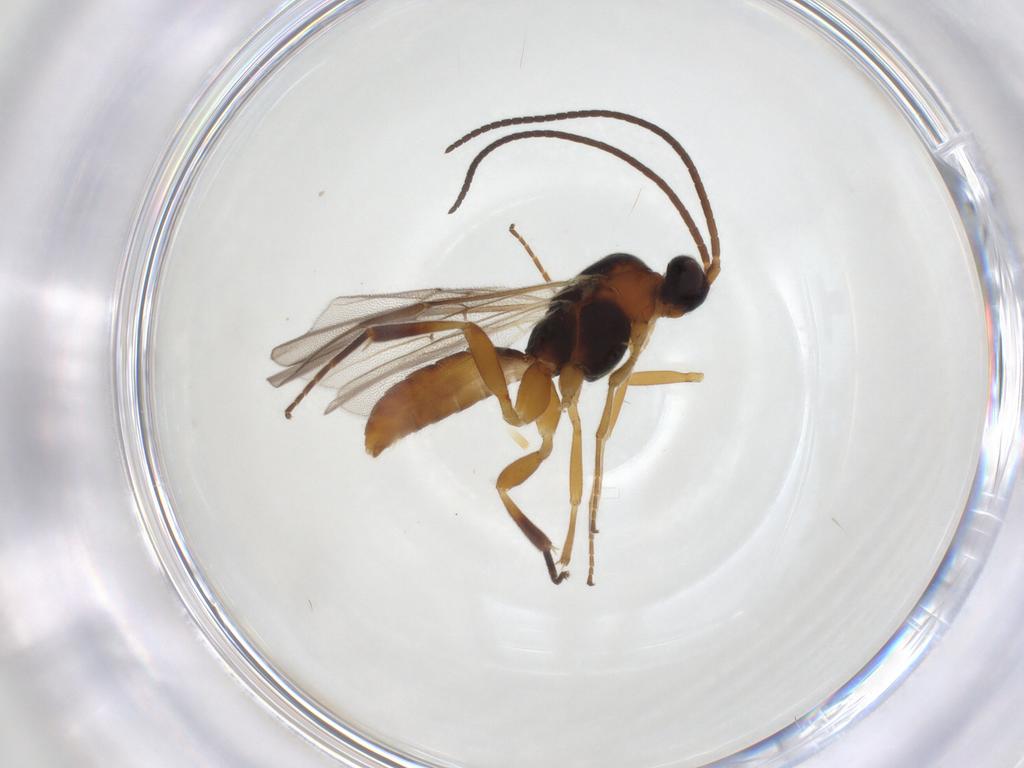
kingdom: Animalia
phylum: Arthropoda
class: Insecta
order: Hymenoptera
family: Braconidae
